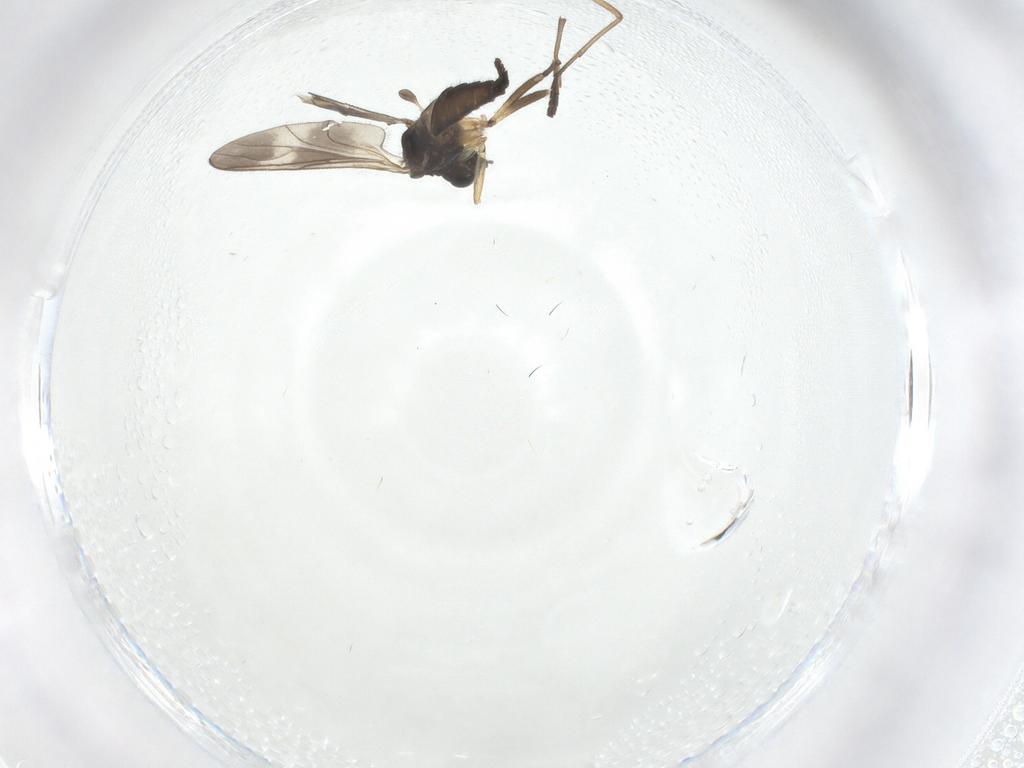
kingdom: Animalia
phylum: Arthropoda
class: Insecta
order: Diptera
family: Sciaridae
